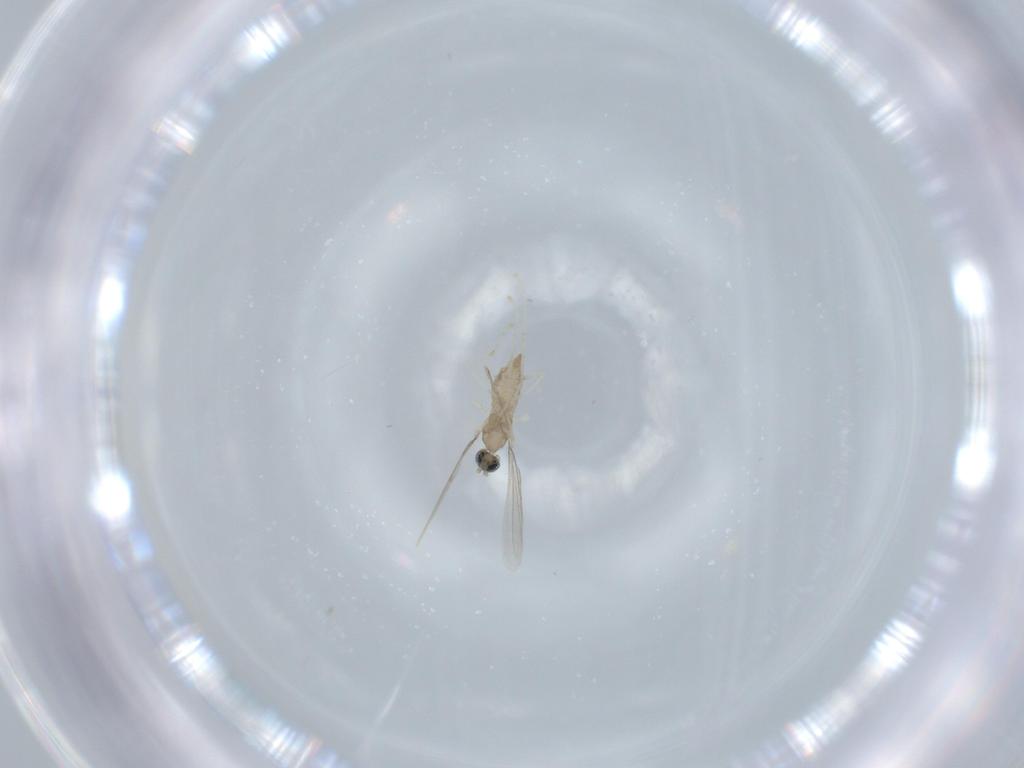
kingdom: Animalia
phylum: Arthropoda
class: Insecta
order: Diptera
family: Cecidomyiidae
